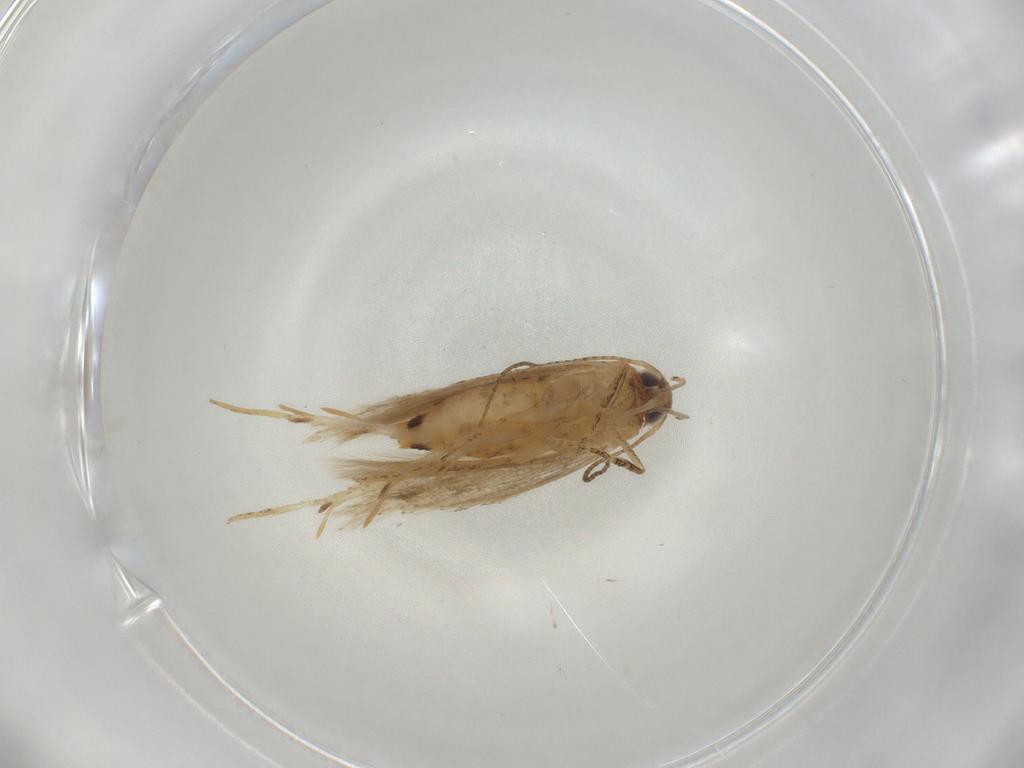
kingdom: Animalia
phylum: Arthropoda
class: Insecta
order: Lepidoptera
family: Gelechiidae
